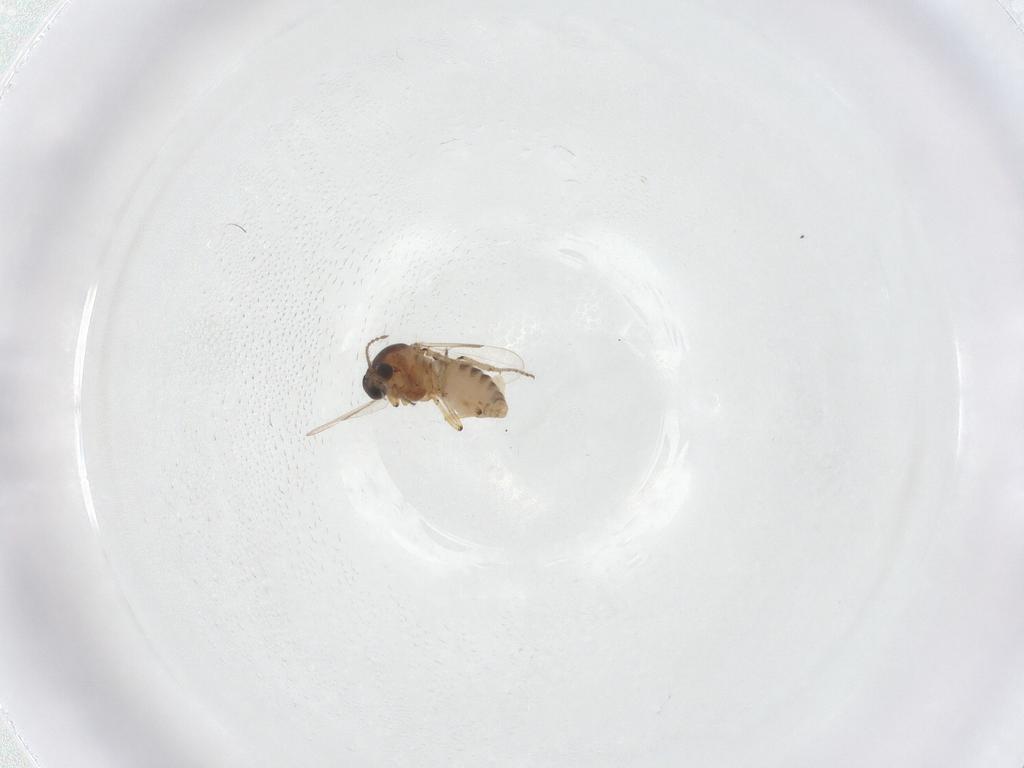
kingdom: Animalia
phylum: Arthropoda
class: Insecta
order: Diptera
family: Ceratopogonidae
